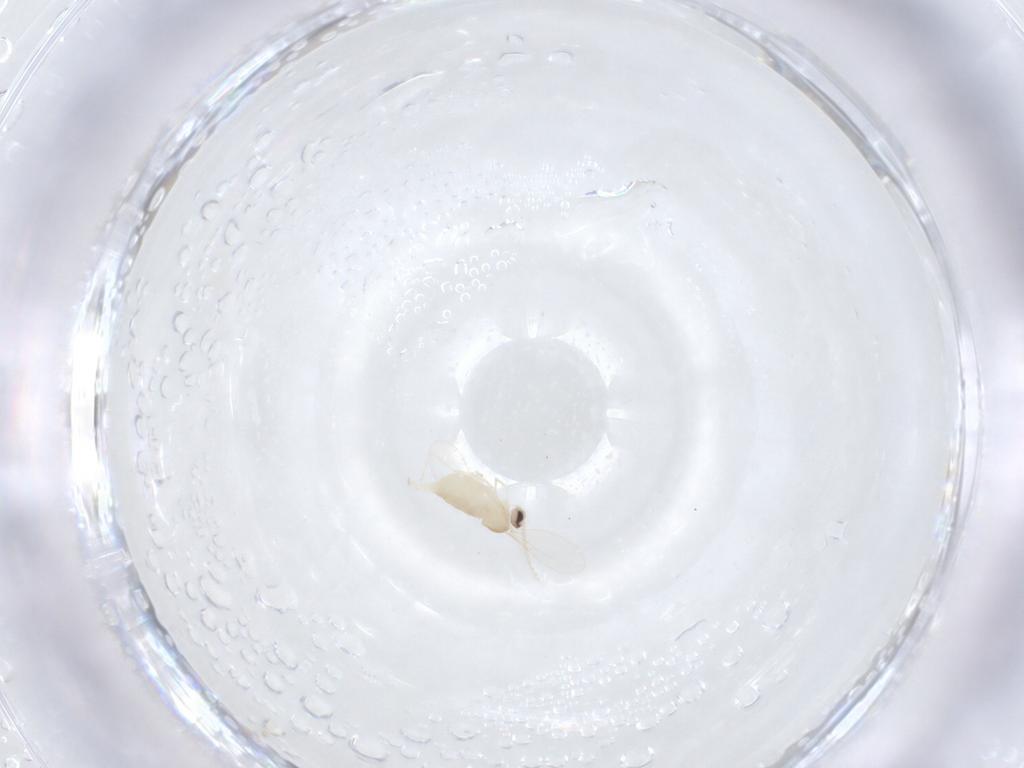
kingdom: Animalia
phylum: Arthropoda
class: Insecta
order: Diptera
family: Cecidomyiidae
